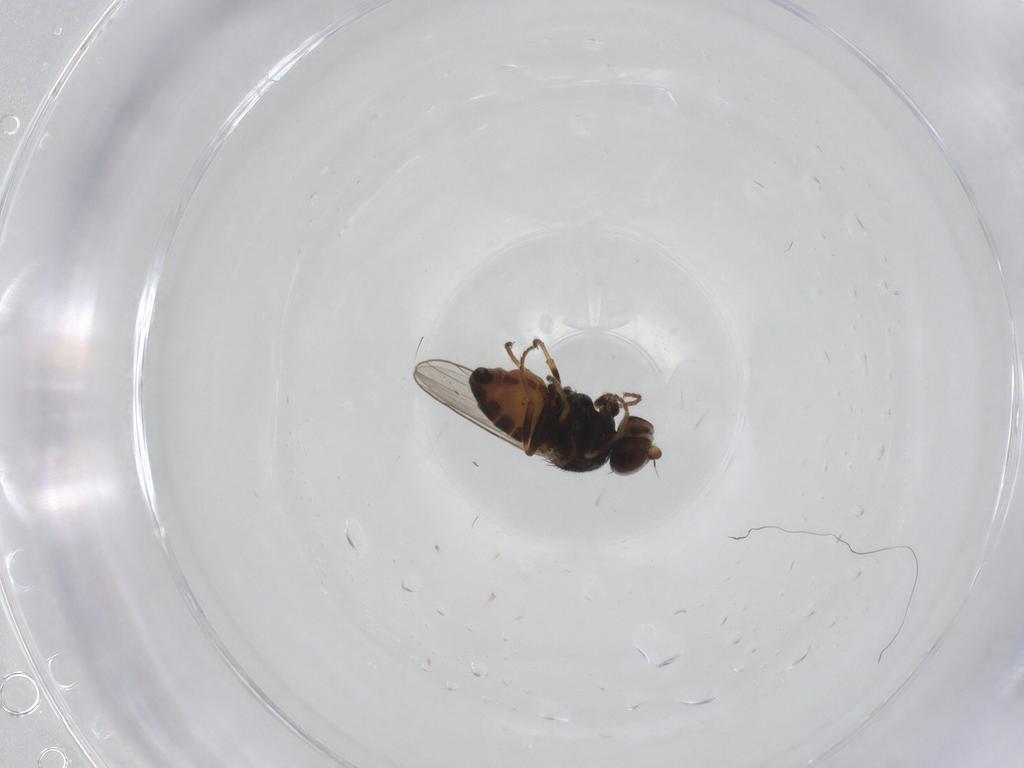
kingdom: Animalia
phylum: Arthropoda
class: Insecta
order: Diptera
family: Chloropidae
